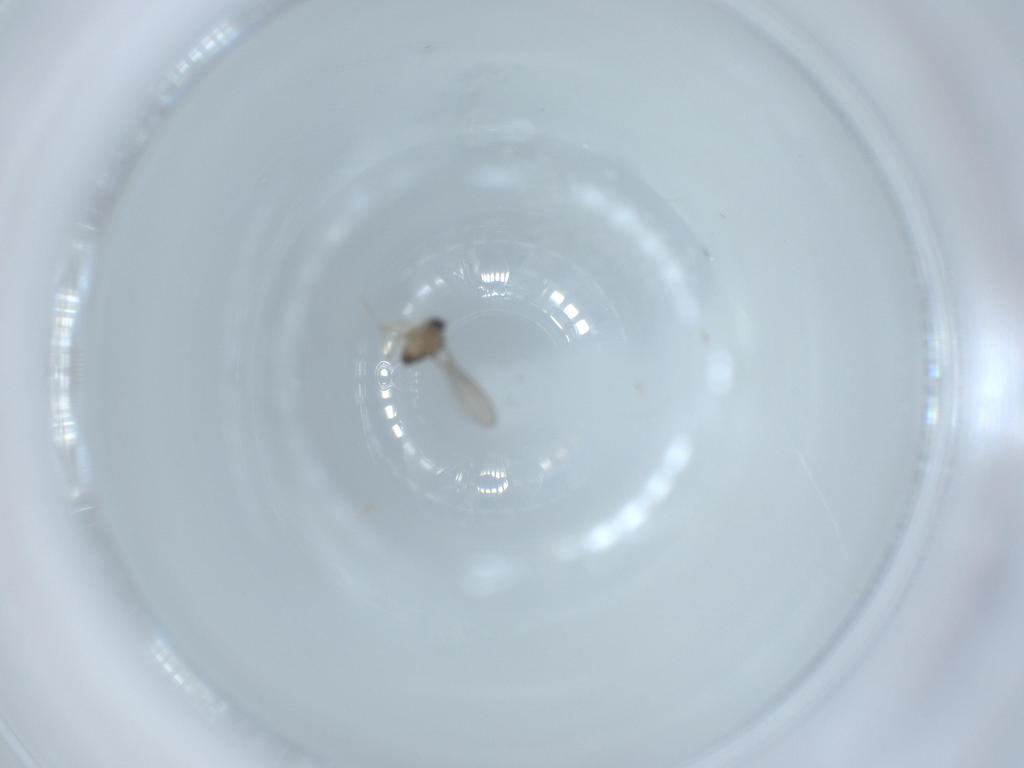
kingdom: Animalia
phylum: Arthropoda
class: Insecta
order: Diptera
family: Cecidomyiidae
